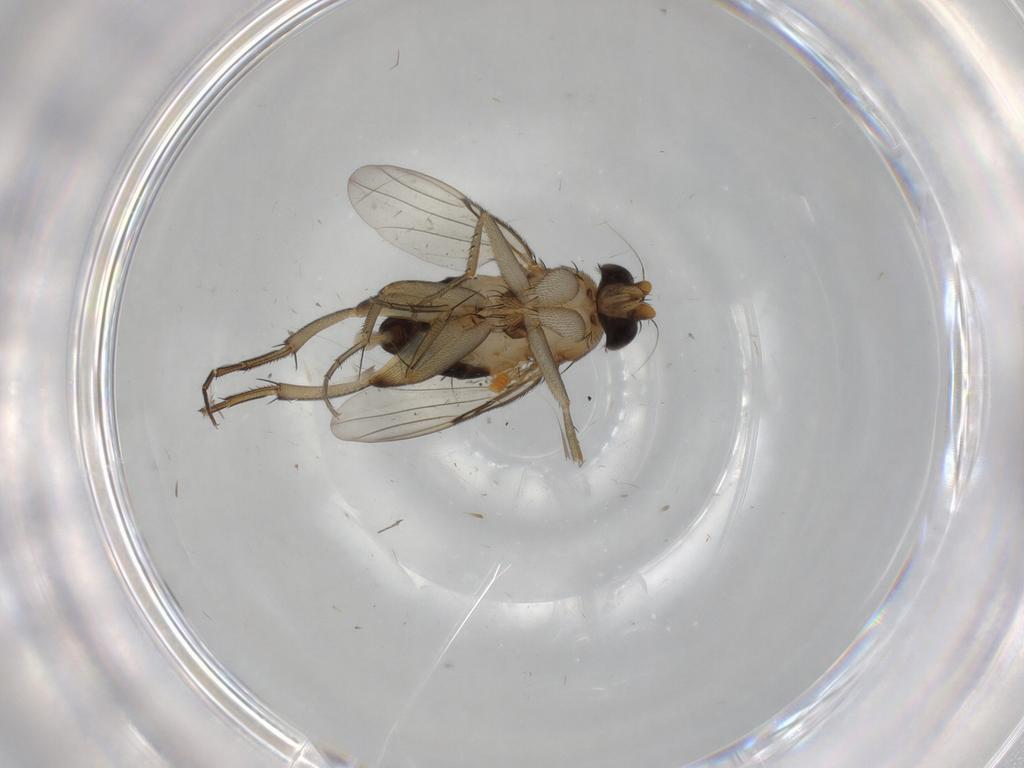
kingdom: Animalia
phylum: Arthropoda
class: Insecta
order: Diptera
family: Phoridae
